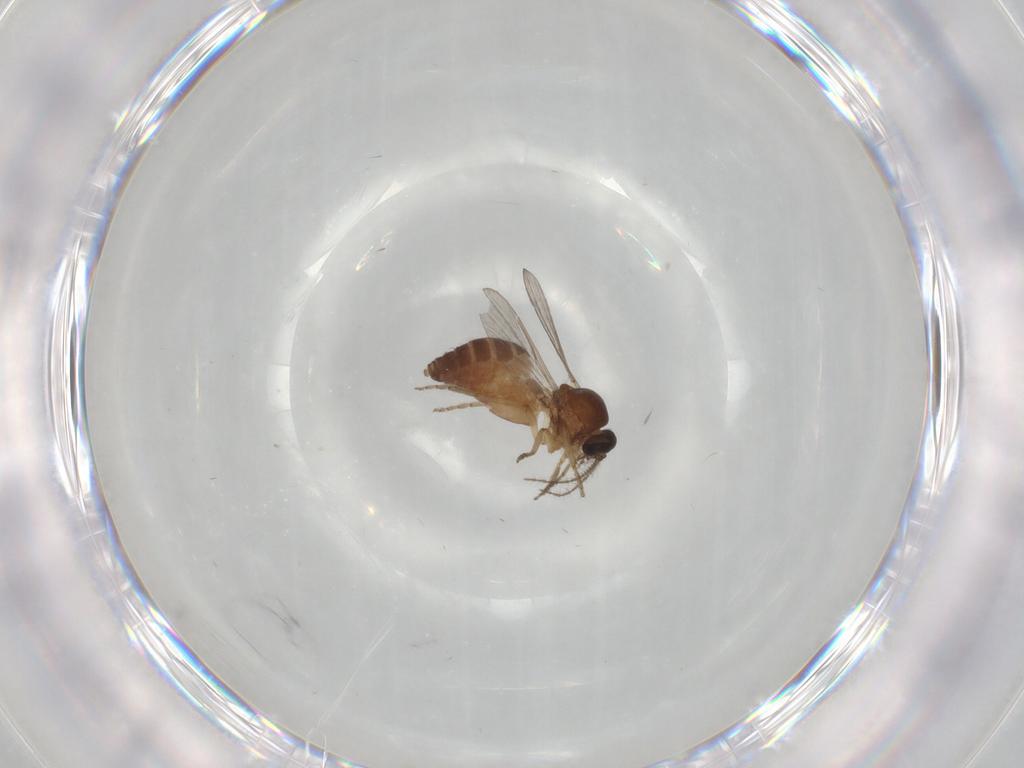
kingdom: Animalia
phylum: Arthropoda
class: Insecta
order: Diptera
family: Ceratopogonidae
